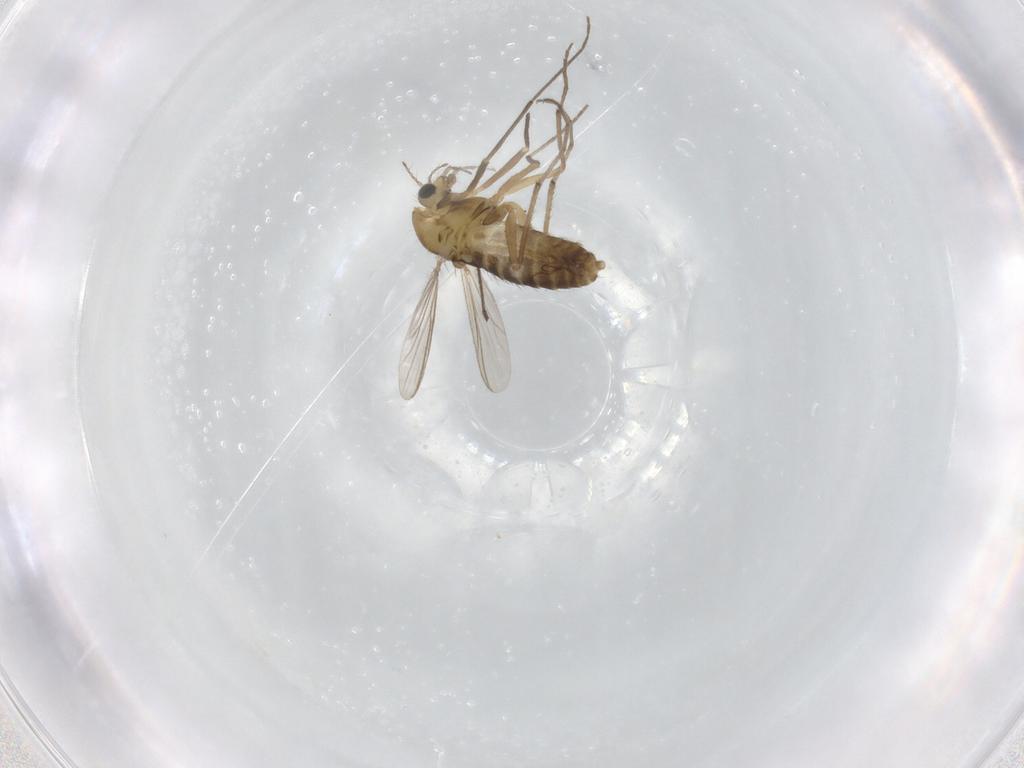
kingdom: Animalia
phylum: Arthropoda
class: Insecta
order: Diptera
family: Chironomidae
